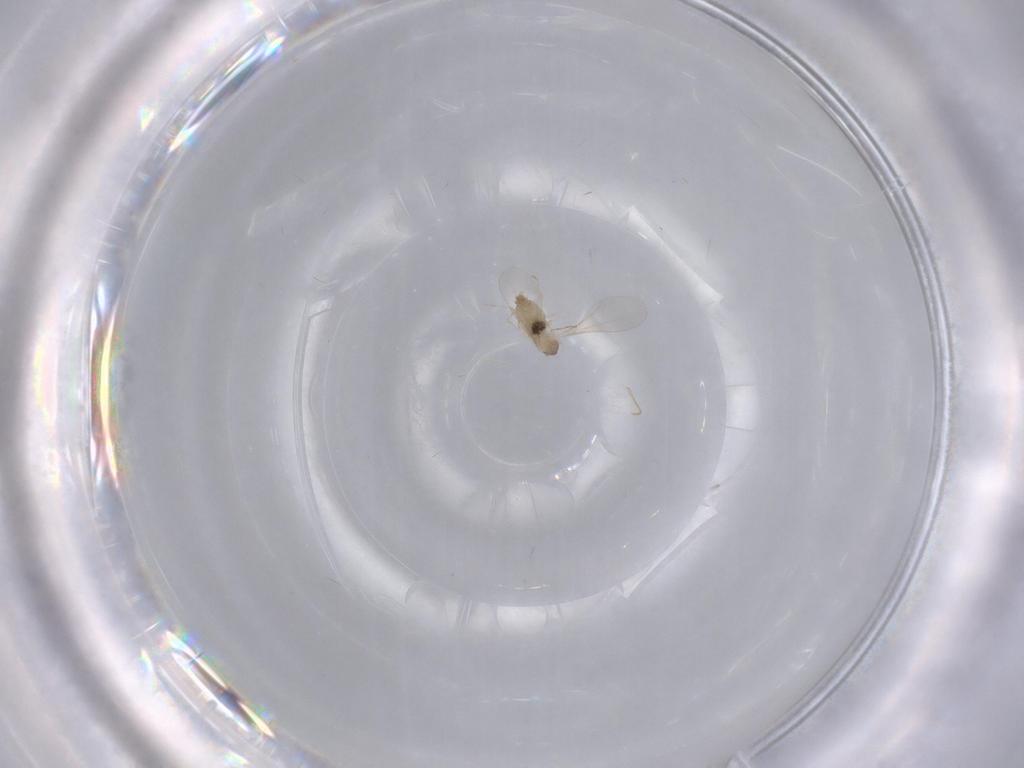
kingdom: Animalia
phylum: Arthropoda
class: Insecta
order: Diptera
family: Cecidomyiidae
